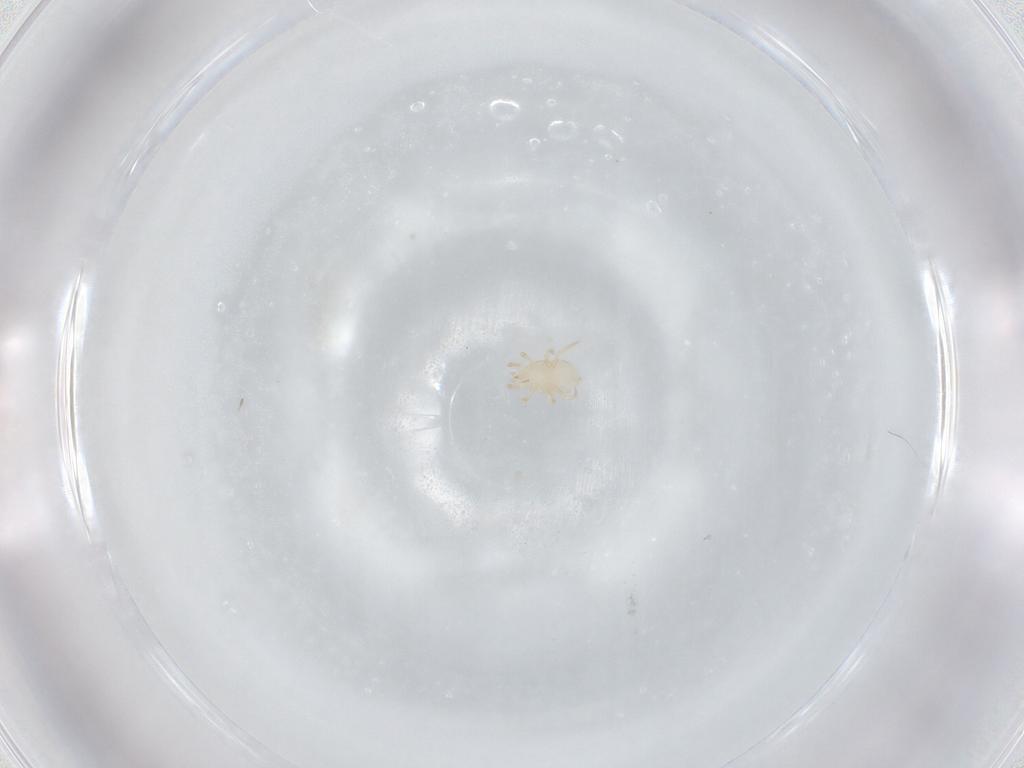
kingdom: Animalia
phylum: Arthropoda
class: Arachnida
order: Mesostigmata
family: Melicharidae
